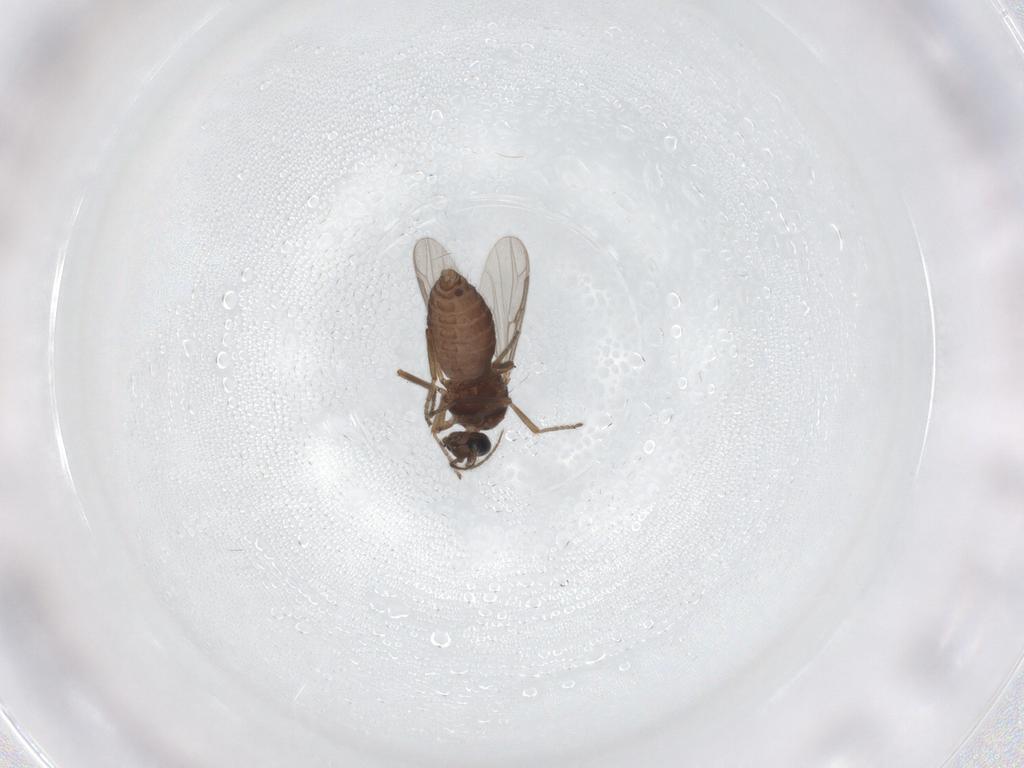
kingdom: Animalia
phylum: Arthropoda
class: Insecta
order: Diptera
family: Ceratopogonidae
